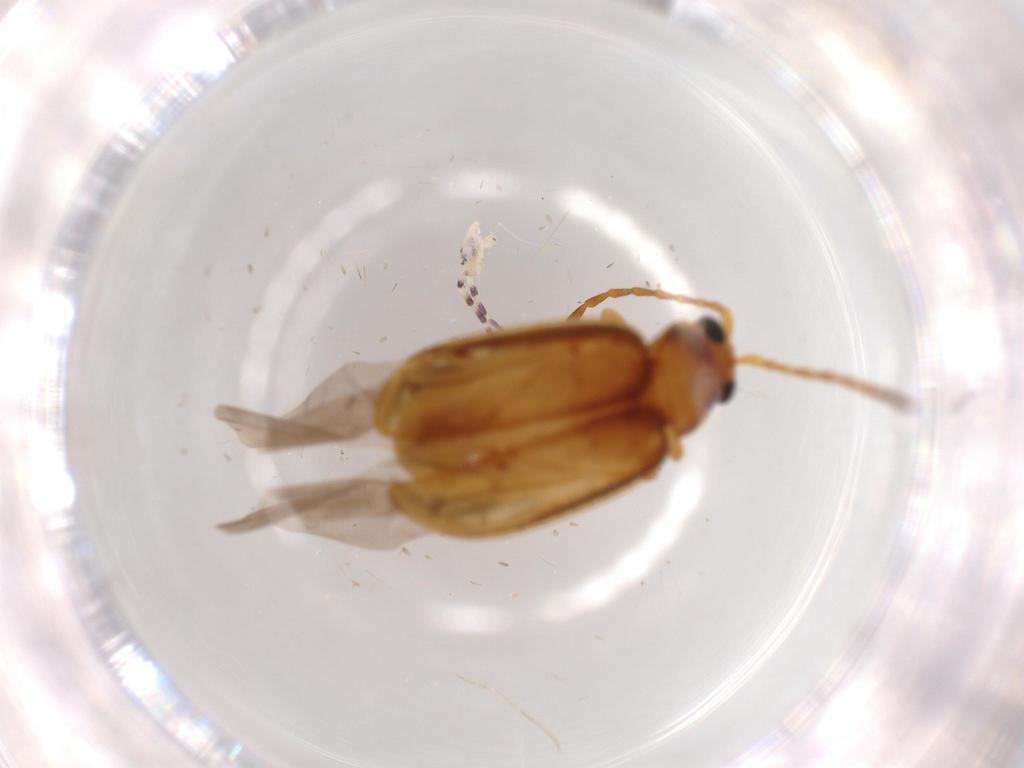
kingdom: Animalia
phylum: Arthropoda
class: Insecta
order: Coleoptera
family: Chrysomelidae
